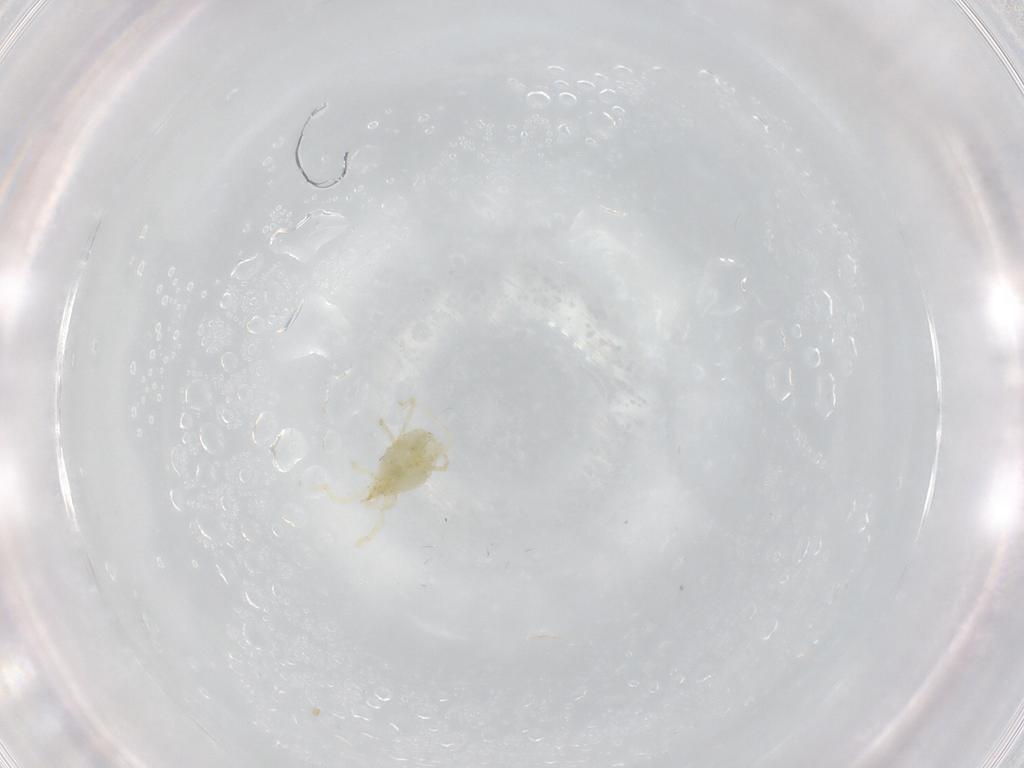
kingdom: Animalia
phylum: Arthropoda
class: Arachnida
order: Trombidiformes
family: Erythraeidae
